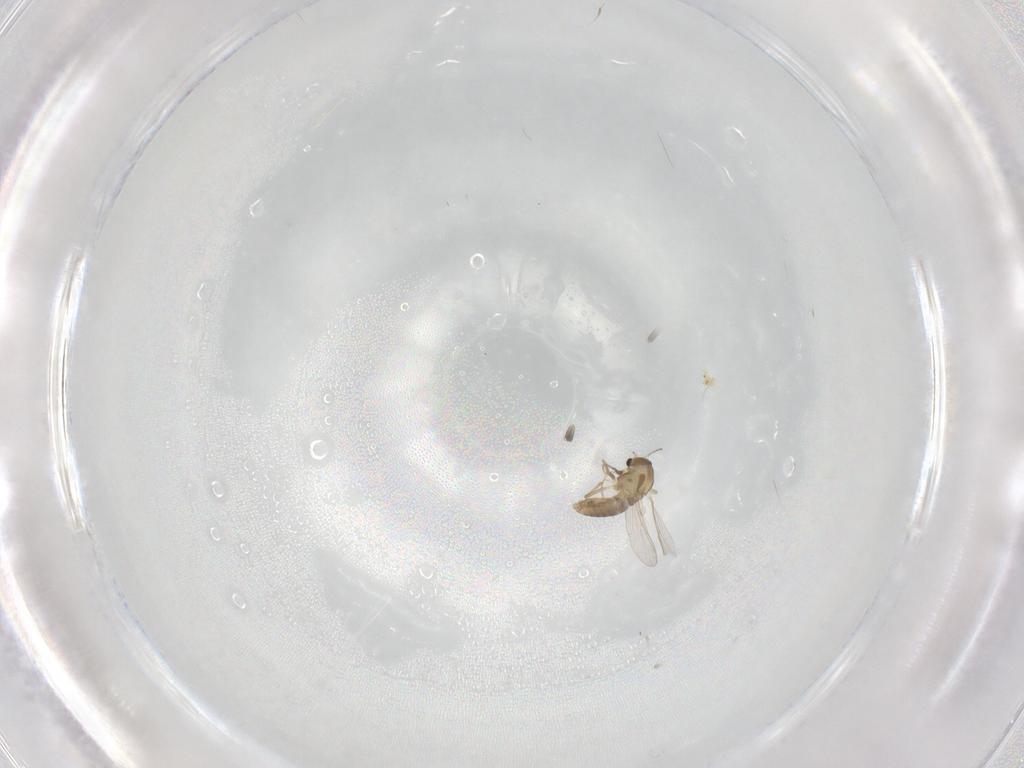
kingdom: Animalia
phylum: Arthropoda
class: Insecta
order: Diptera
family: Chironomidae
